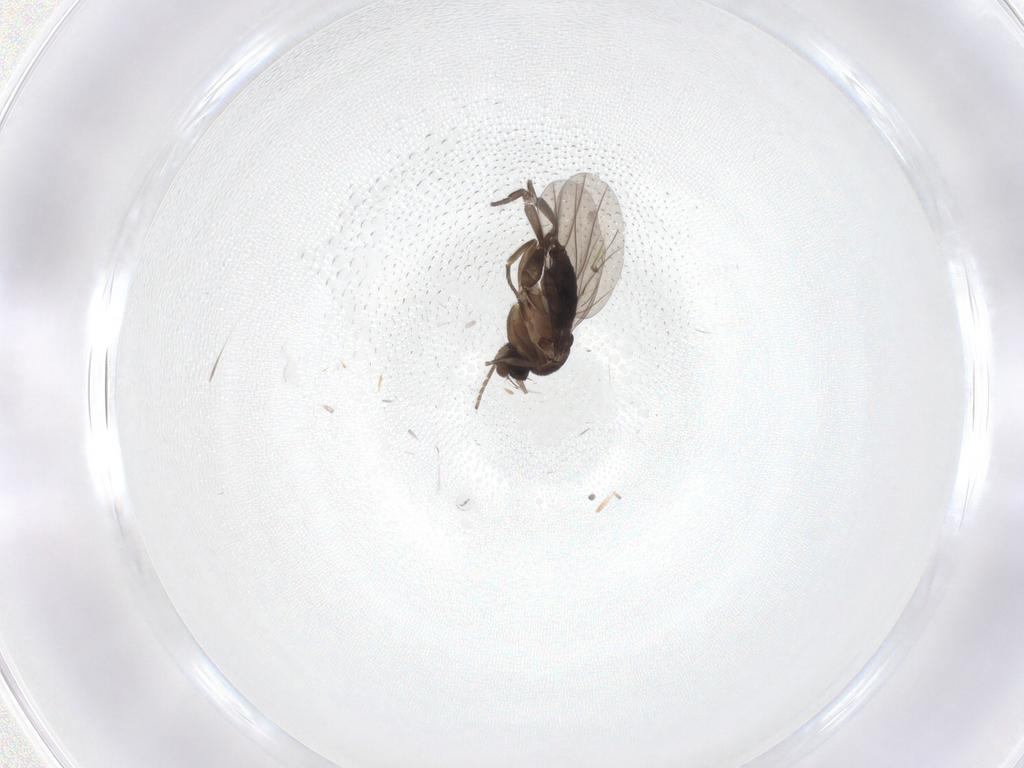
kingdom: Animalia
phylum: Arthropoda
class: Insecta
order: Diptera
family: Phoridae
